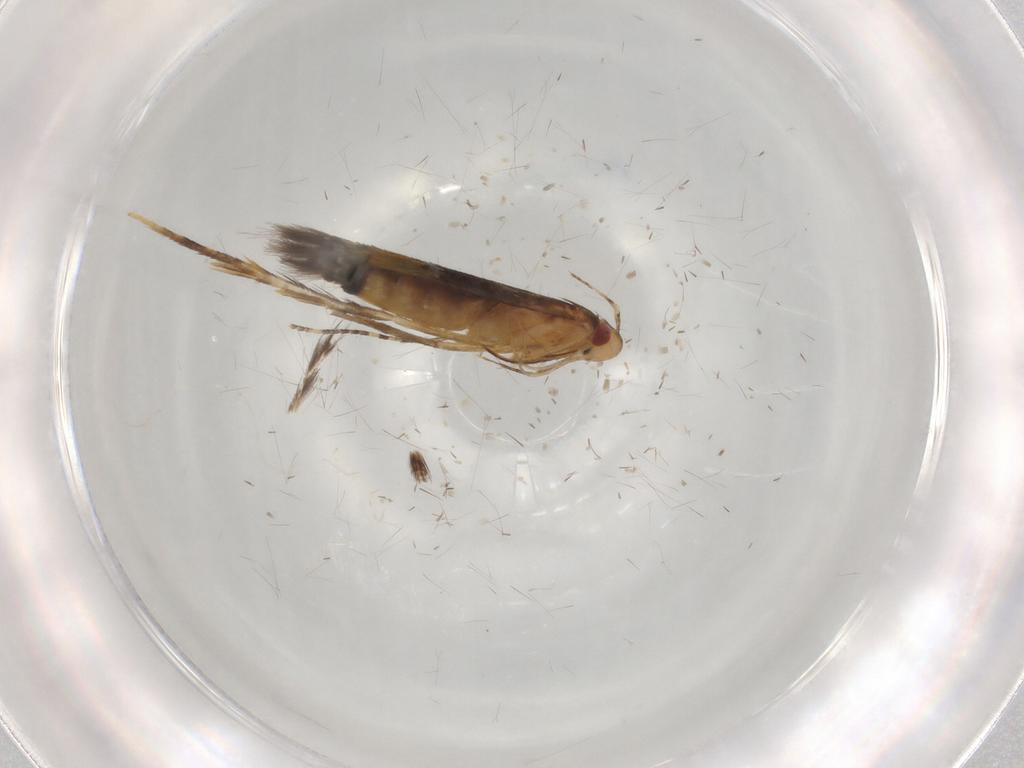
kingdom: Animalia
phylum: Arthropoda
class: Insecta
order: Lepidoptera
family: Cosmopterigidae
